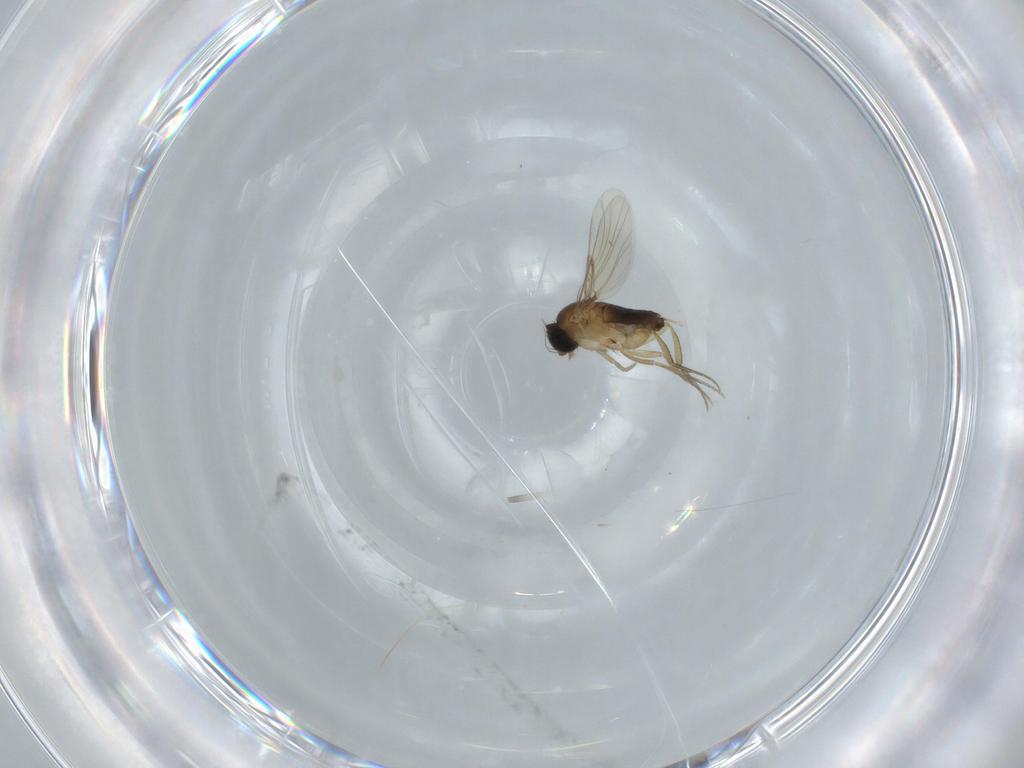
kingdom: Animalia
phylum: Arthropoda
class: Insecta
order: Diptera
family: Phoridae
